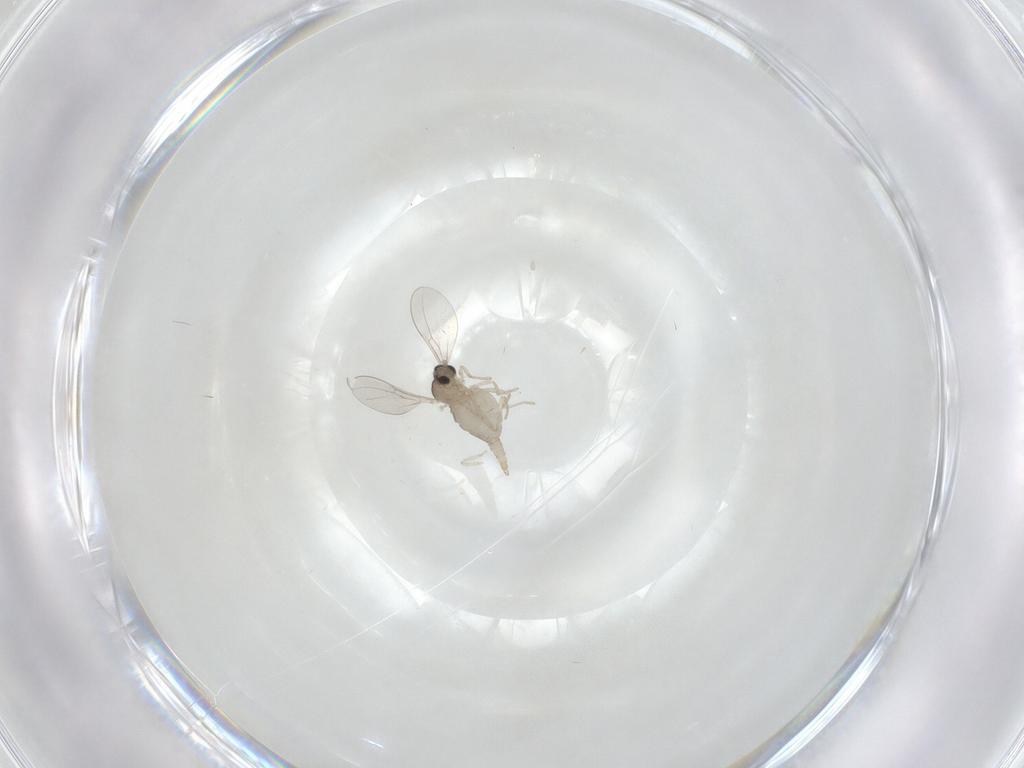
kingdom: Animalia
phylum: Arthropoda
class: Insecta
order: Diptera
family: Cecidomyiidae
